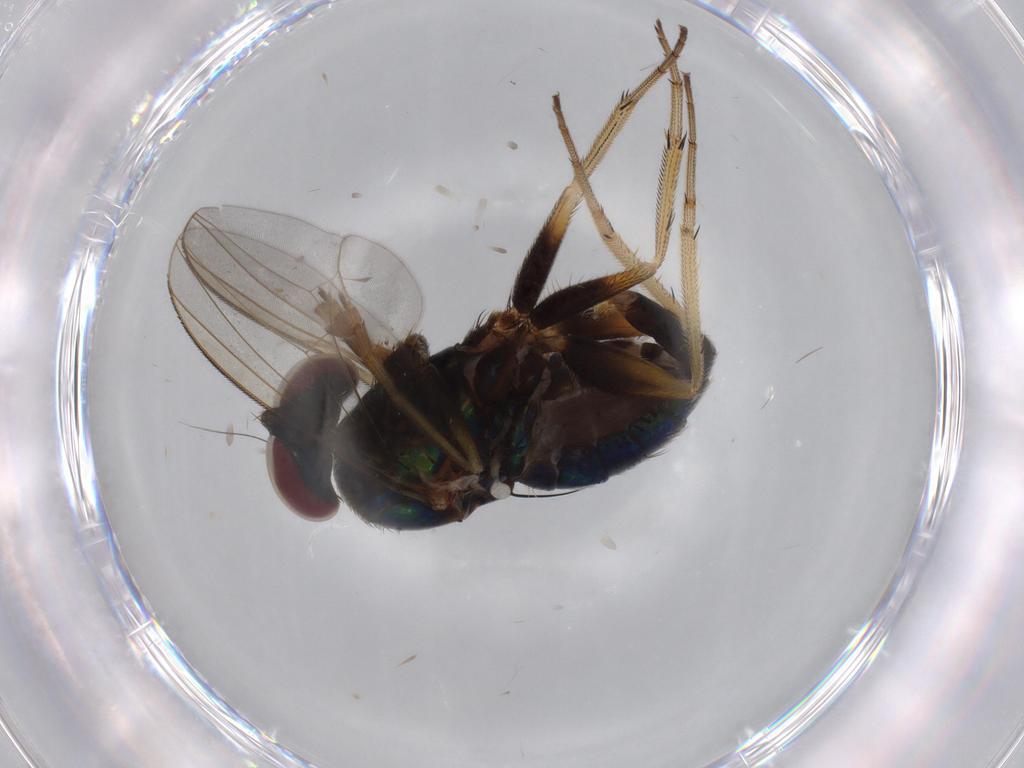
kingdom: Animalia
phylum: Arthropoda
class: Insecta
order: Diptera
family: Dolichopodidae
